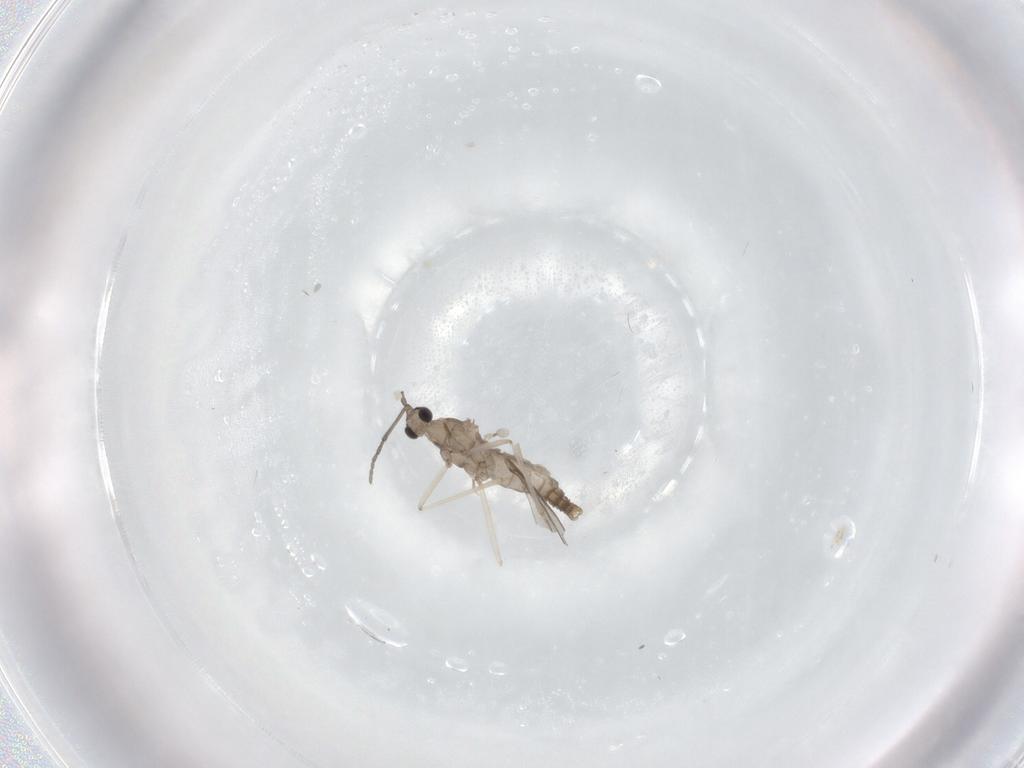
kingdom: Animalia
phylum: Arthropoda
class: Insecta
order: Diptera
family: Cecidomyiidae
